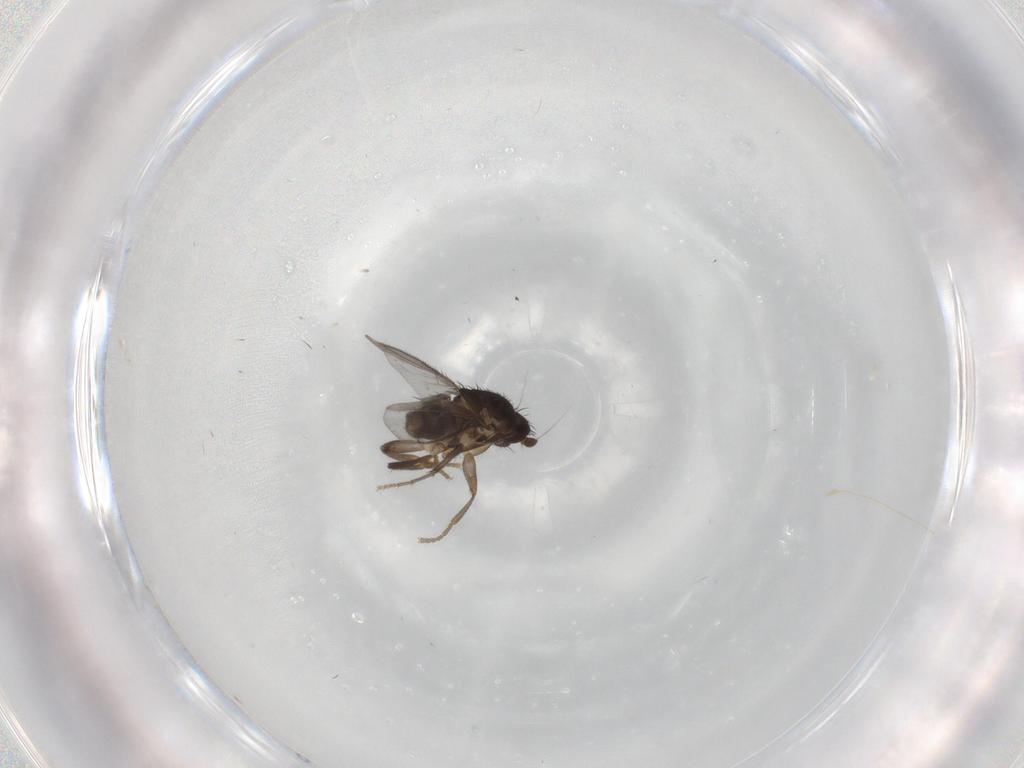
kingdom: Animalia
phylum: Arthropoda
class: Insecta
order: Diptera
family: Sphaeroceridae
